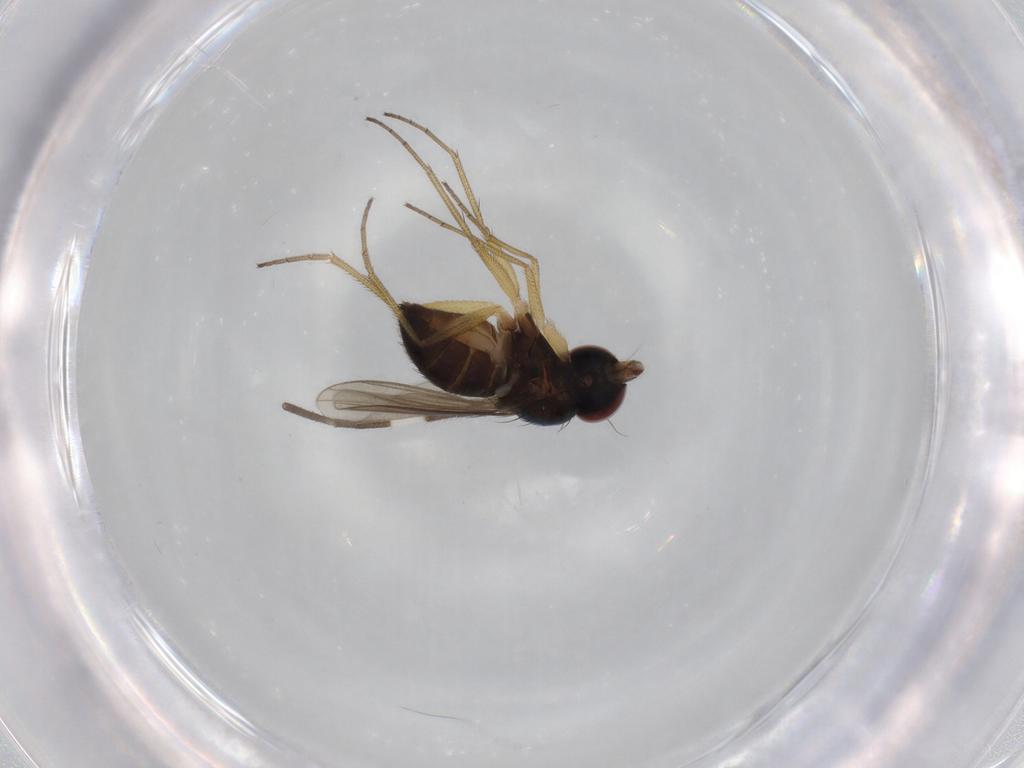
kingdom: Animalia
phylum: Arthropoda
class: Insecta
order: Diptera
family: Dolichopodidae
